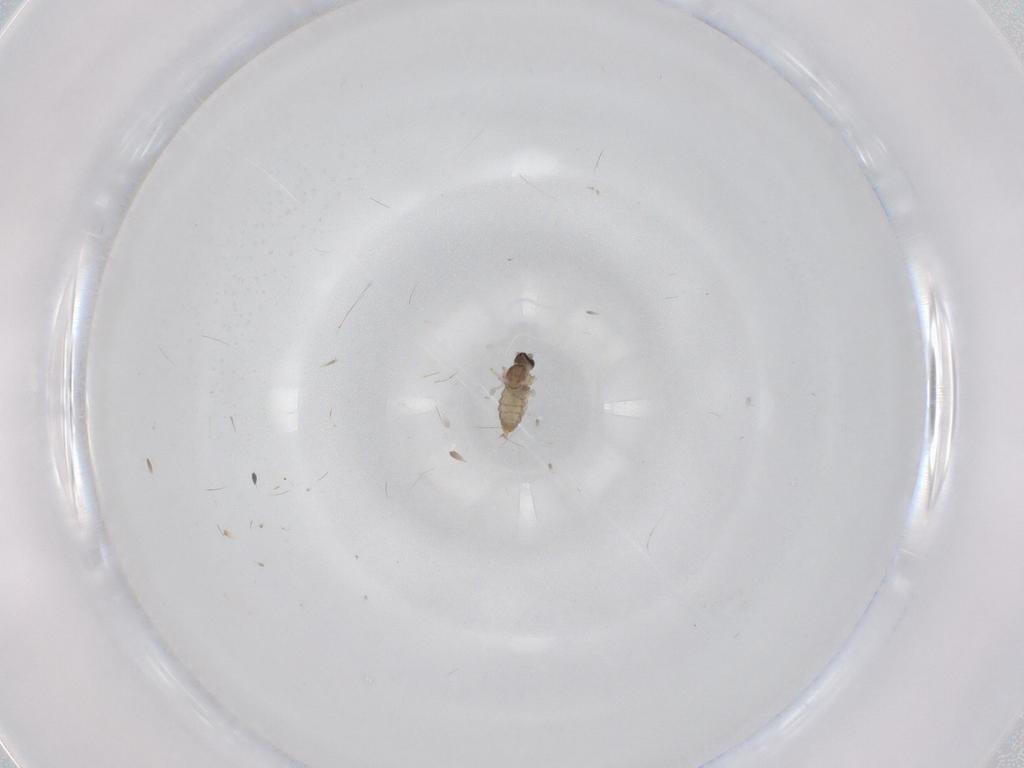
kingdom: Animalia
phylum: Arthropoda
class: Insecta
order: Diptera
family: Cecidomyiidae
